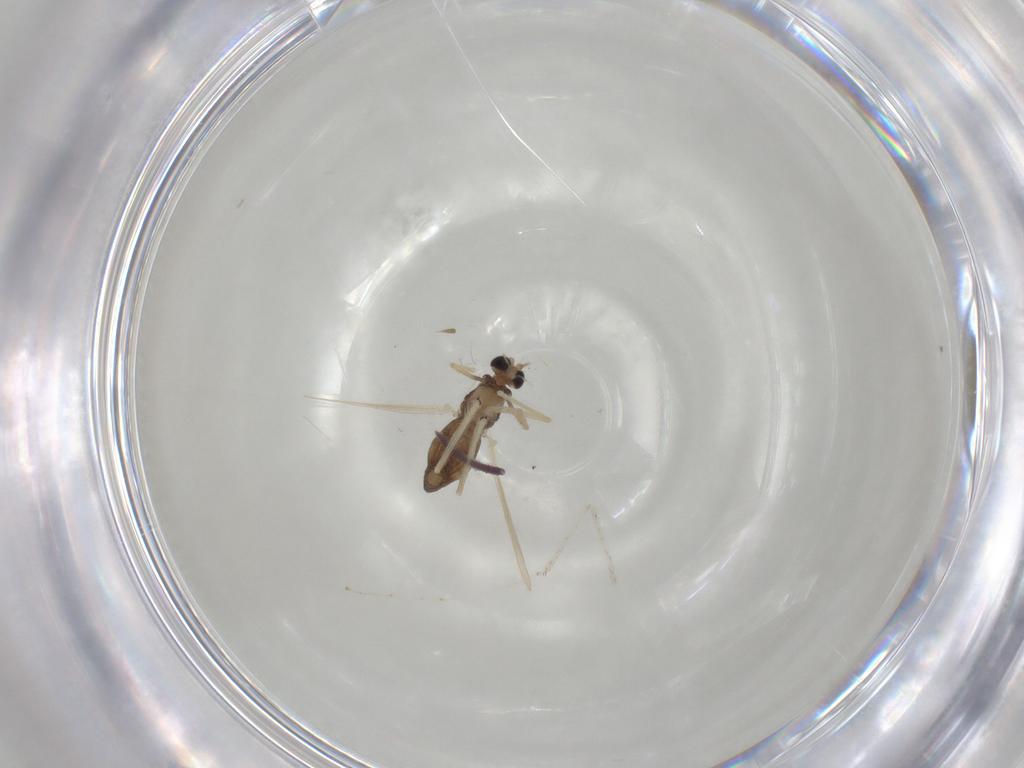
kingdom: Animalia
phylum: Arthropoda
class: Insecta
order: Diptera
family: Chironomidae
